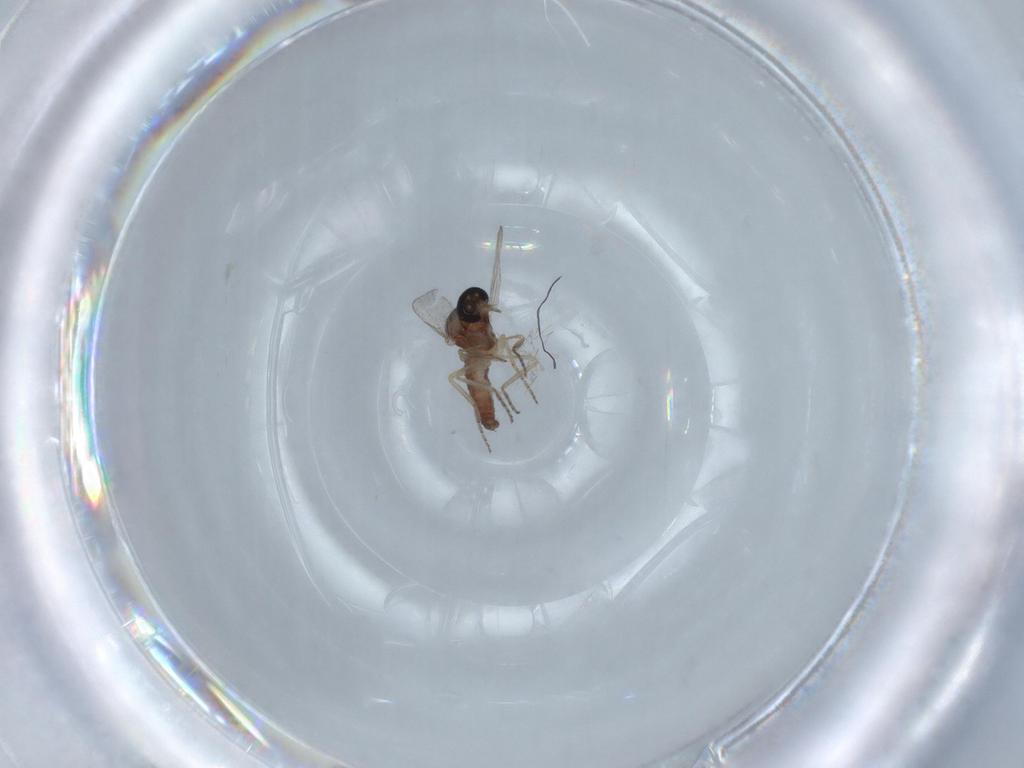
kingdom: Animalia
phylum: Arthropoda
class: Insecta
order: Diptera
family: Ceratopogonidae
